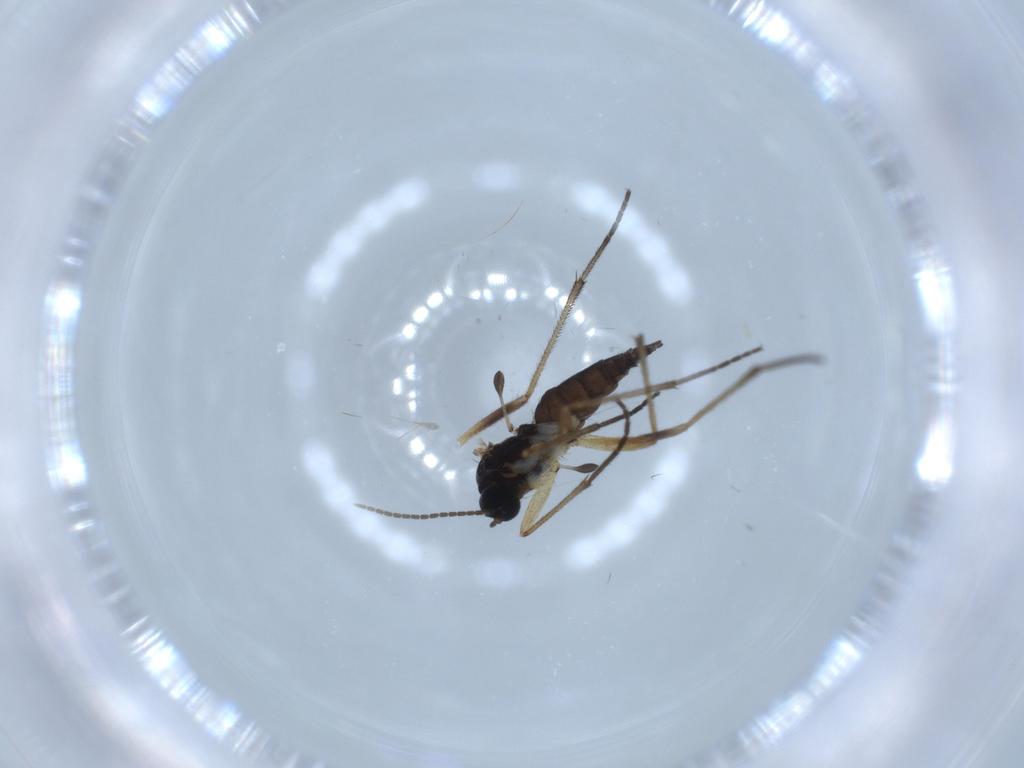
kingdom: Animalia
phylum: Arthropoda
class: Insecta
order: Diptera
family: Sciaridae
